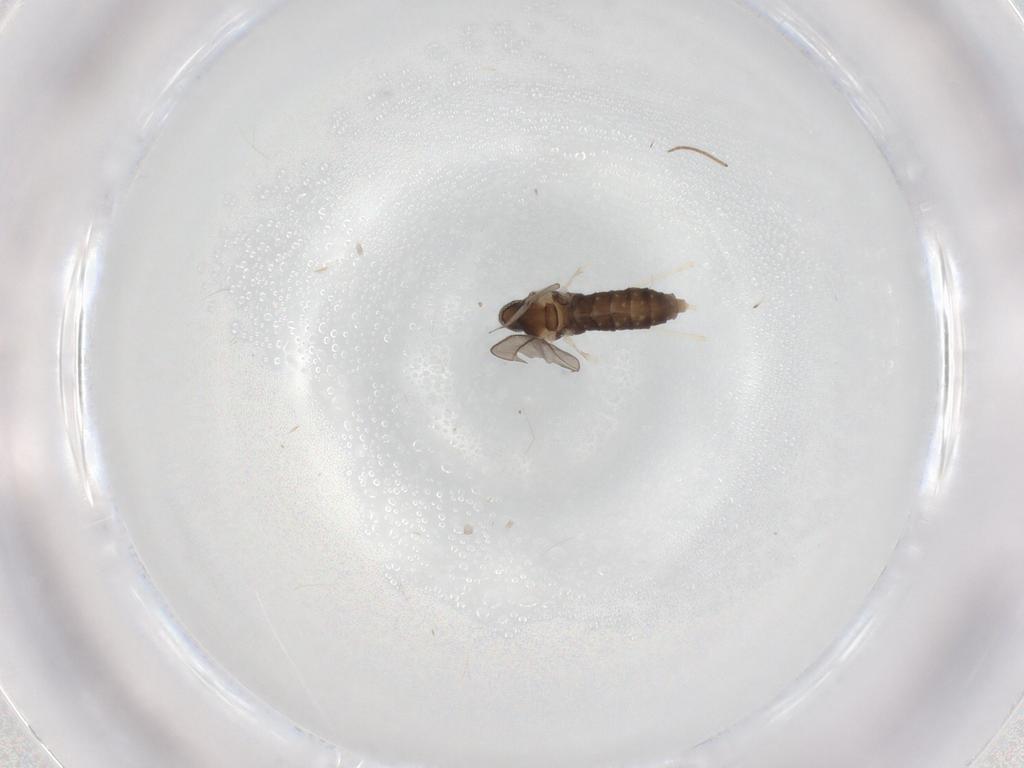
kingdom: Animalia
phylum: Arthropoda
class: Insecta
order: Diptera
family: Cecidomyiidae
